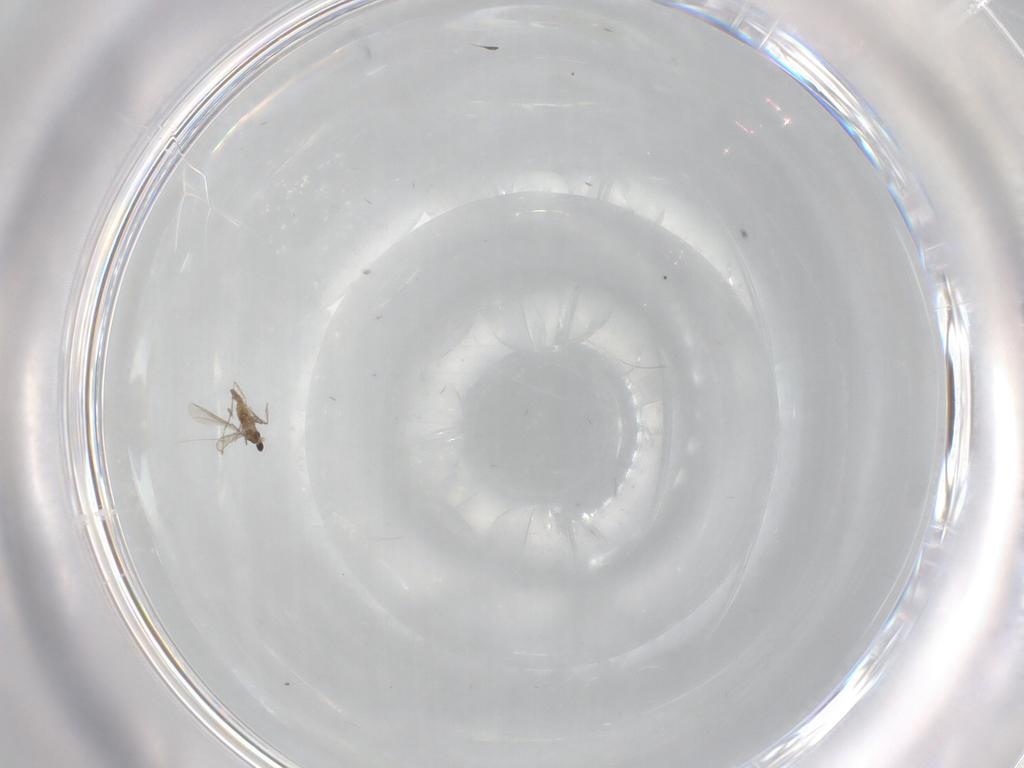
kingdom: Animalia
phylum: Arthropoda
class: Insecta
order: Diptera
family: Cecidomyiidae
